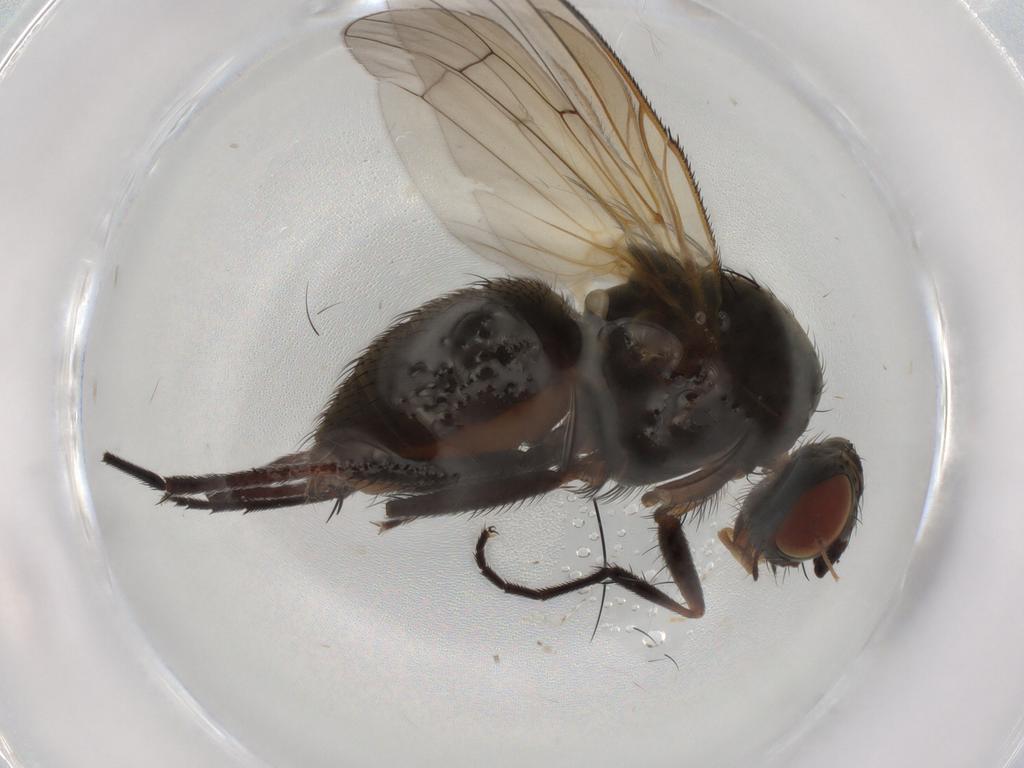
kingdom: Animalia
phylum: Arthropoda
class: Insecta
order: Diptera
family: Anthomyiidae
